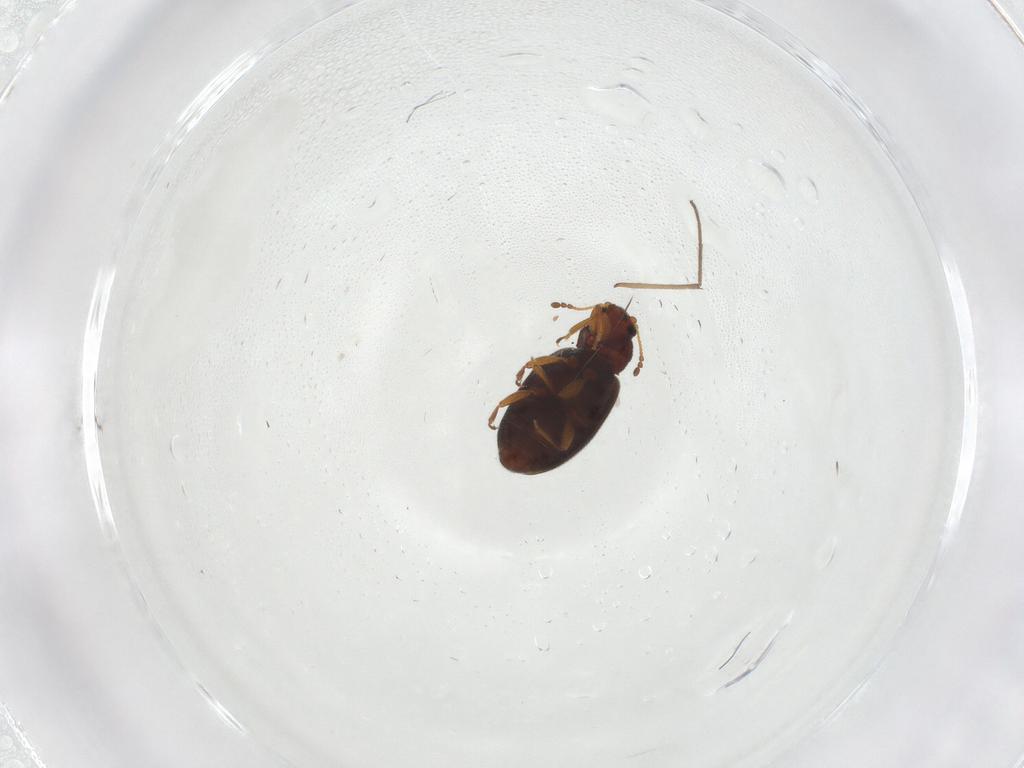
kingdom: Animalia
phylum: Arthropoda
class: Insecta
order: Coleoptera
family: Latridiidae
